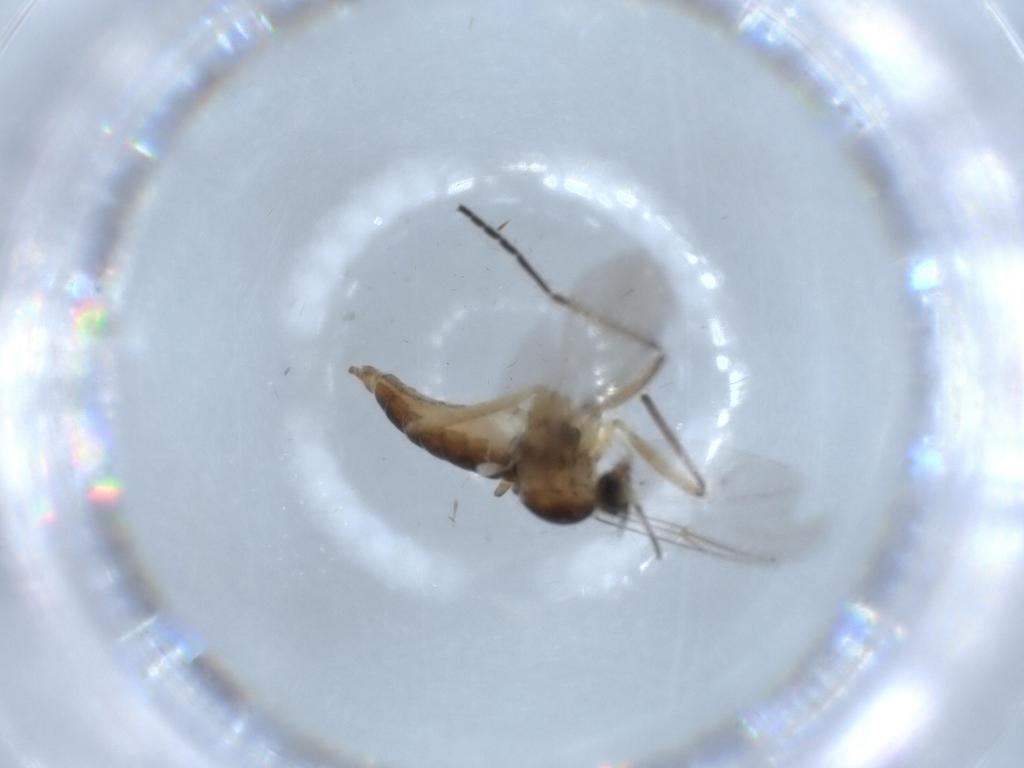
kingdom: Animalia
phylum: Arthropoda
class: Insecta
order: Diptera
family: Cecidomyiidae
